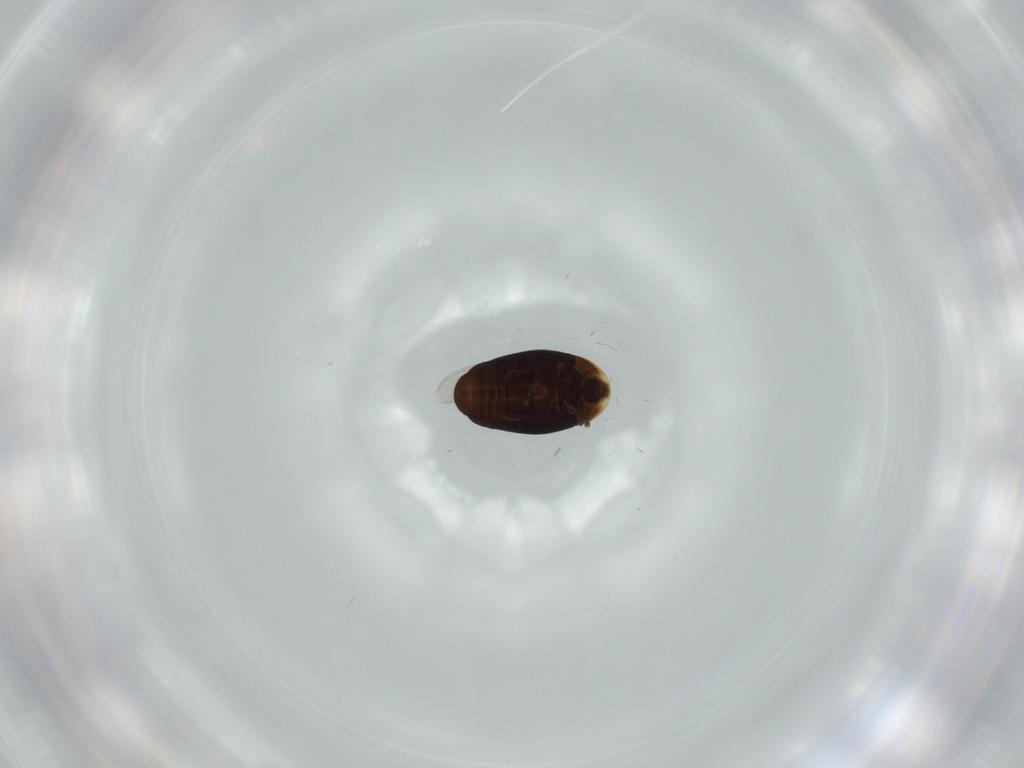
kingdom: Animalia
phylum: Arthropoda
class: Insecta
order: Coleoptera
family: Corylophidae
